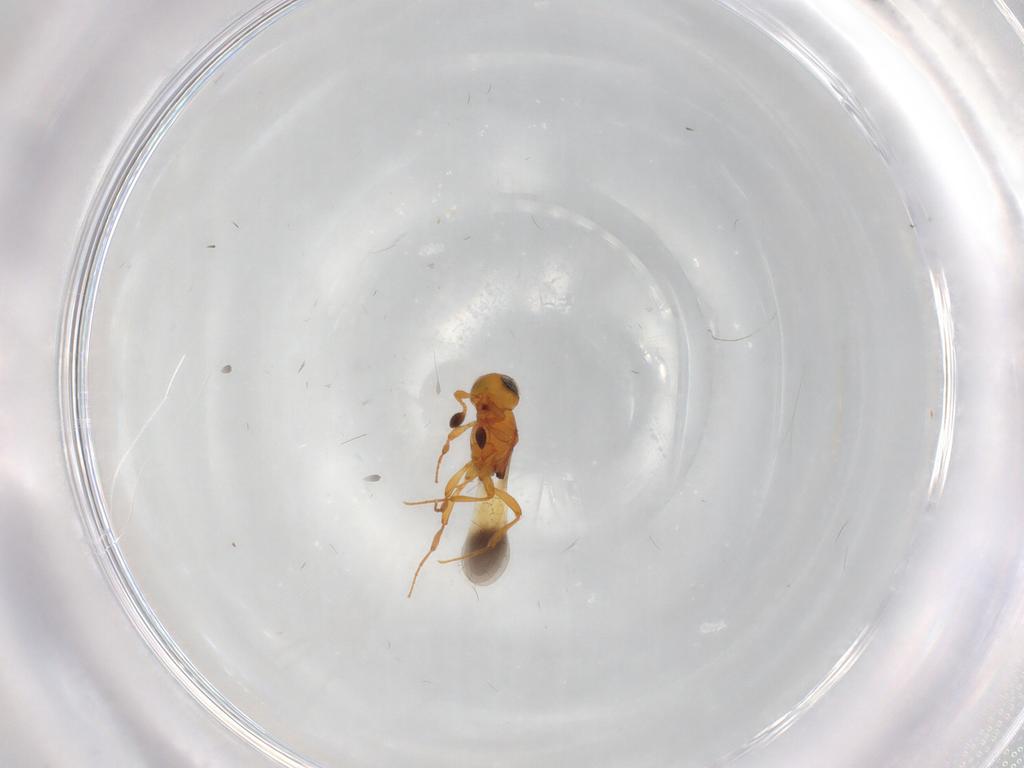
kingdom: Animalia
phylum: Arthropoda
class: Insecta
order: Hymenoptera
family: Platygastridae
